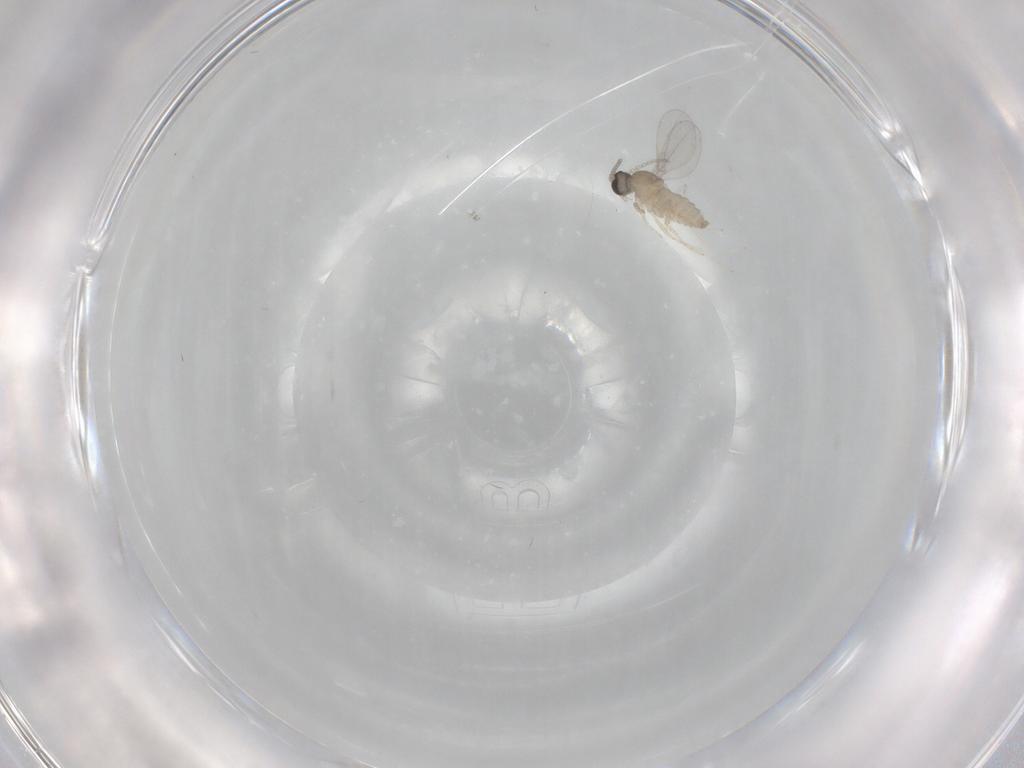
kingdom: Animalia
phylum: Arthropoda
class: Insecta
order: Diptera
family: Cecidomyiidae
